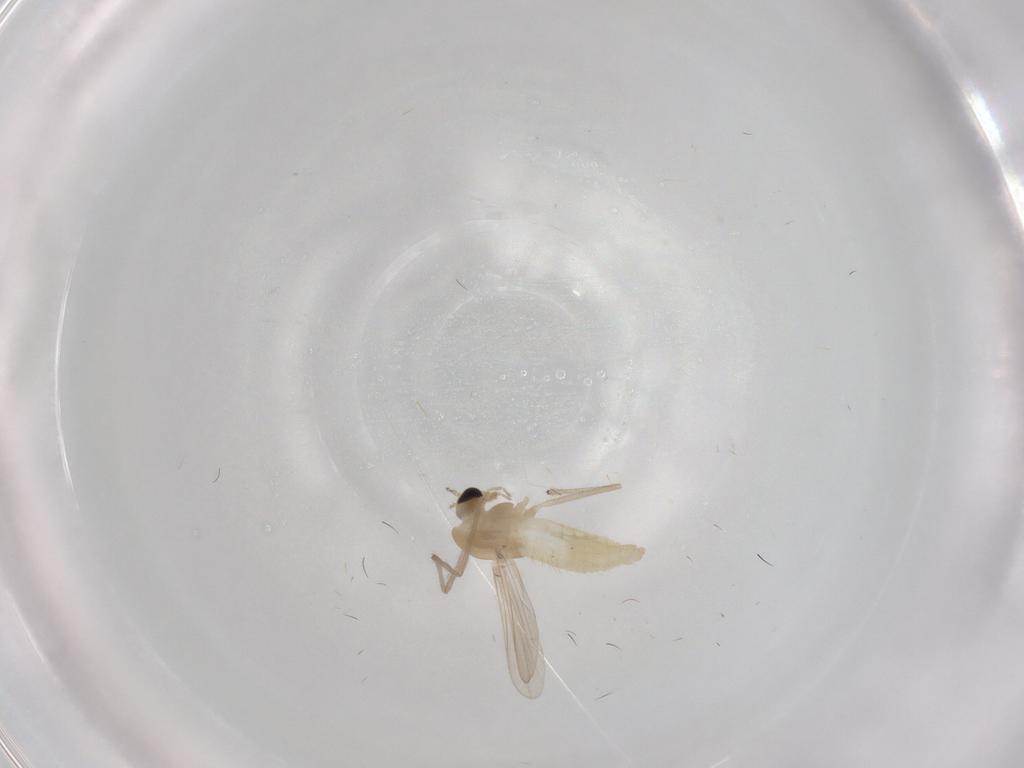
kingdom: Animalia
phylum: Arthropoda
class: Insecta
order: Diptera
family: Chironomidae
